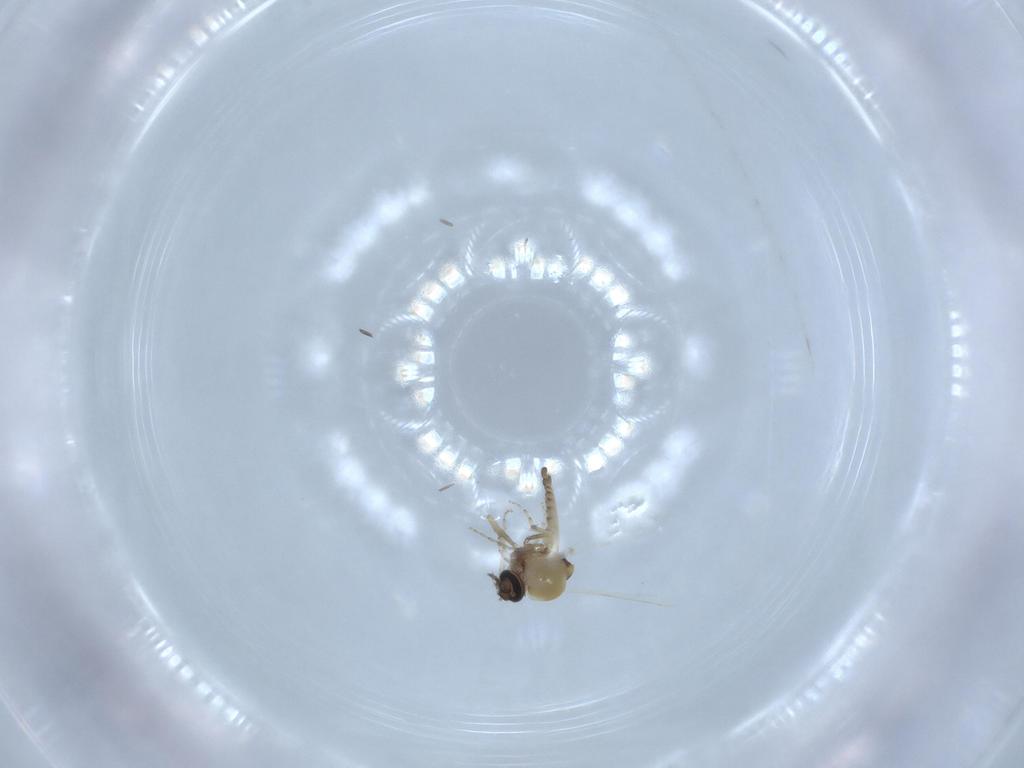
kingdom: Animalia
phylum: Arthropoda
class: Insecta
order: Diptera
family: Ceratopogonidae
